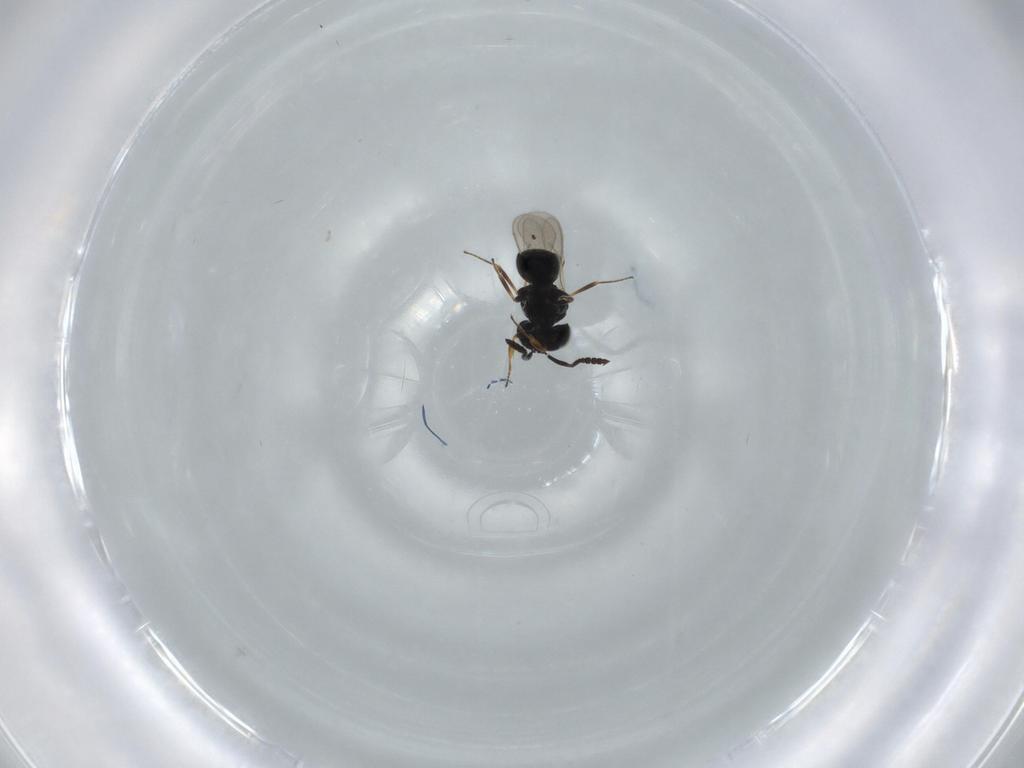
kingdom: Animalia
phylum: Arthropoda
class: Insecta
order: Hymenoptera
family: Scelionidae
